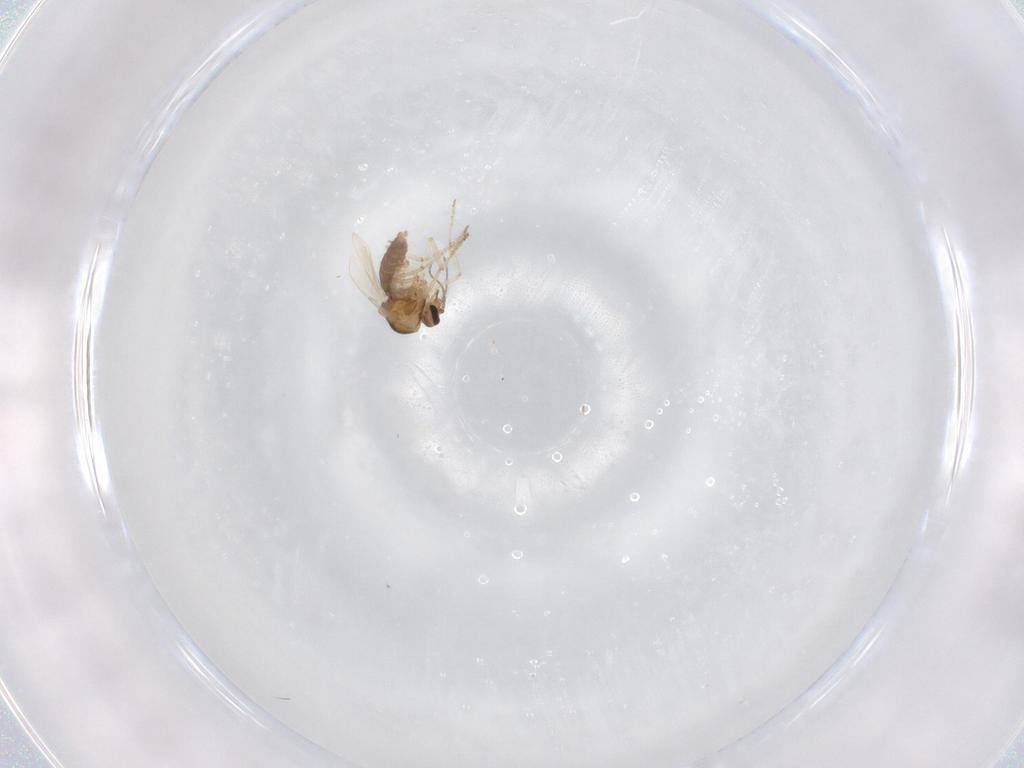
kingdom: Animalia
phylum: Arthropoda
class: Insecta
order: Diptera
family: Ceratopogonidae
